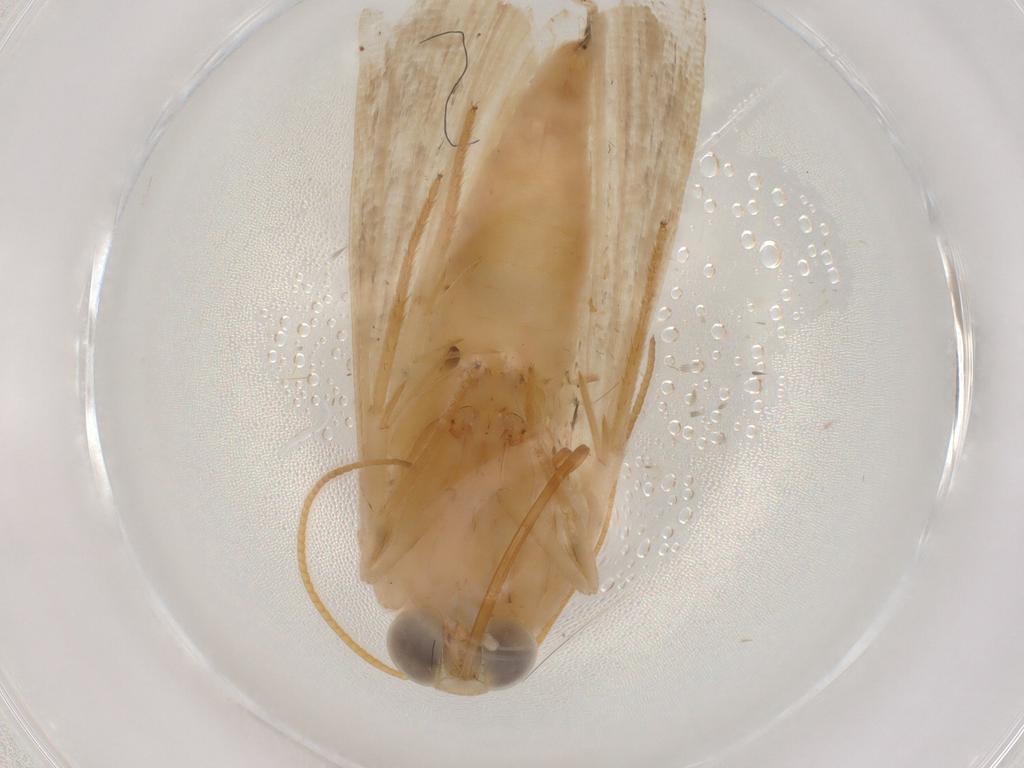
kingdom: Animalia
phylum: Arthropoda
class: Insecta
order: Lepidoptera
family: Noctuidae
